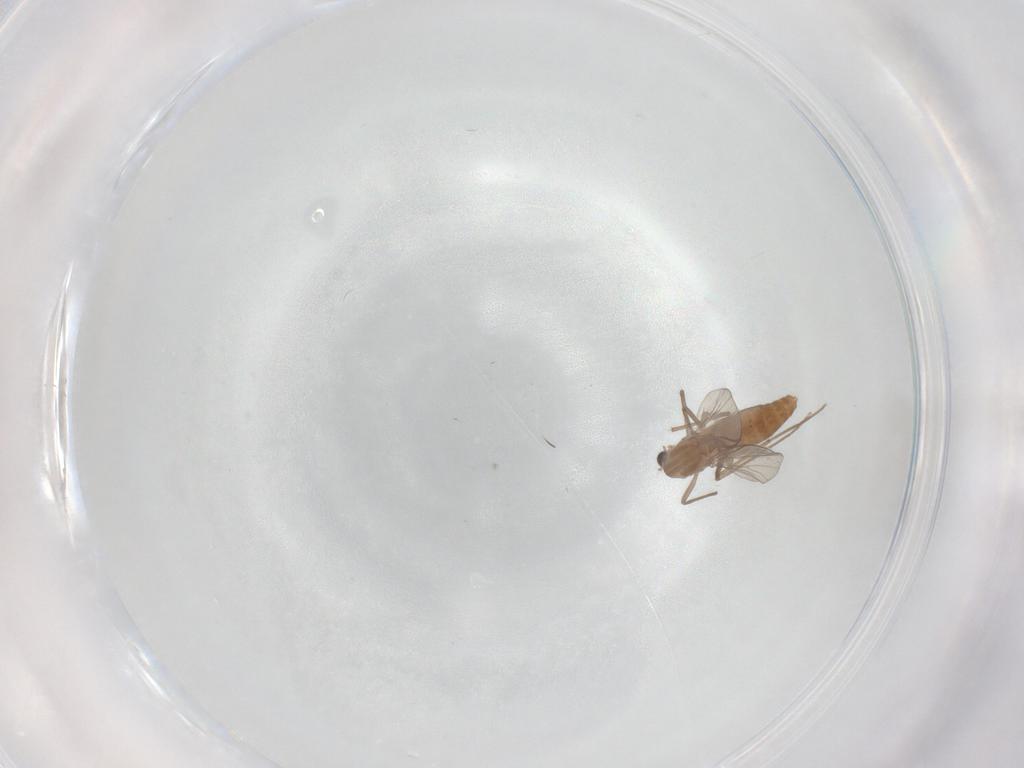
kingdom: Animalia
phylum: Arthropoda
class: Insecta
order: Diptera
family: Chironomidae
